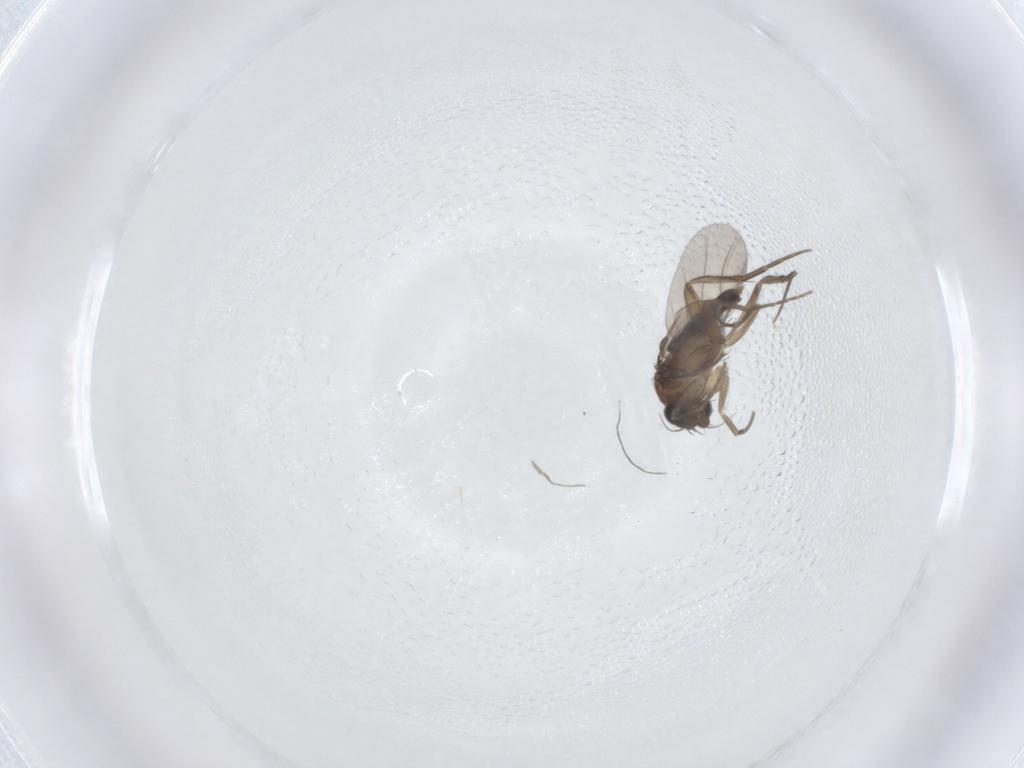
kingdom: Animalia
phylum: Arthropoda
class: Insecta
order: Diptera
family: Phoridae
